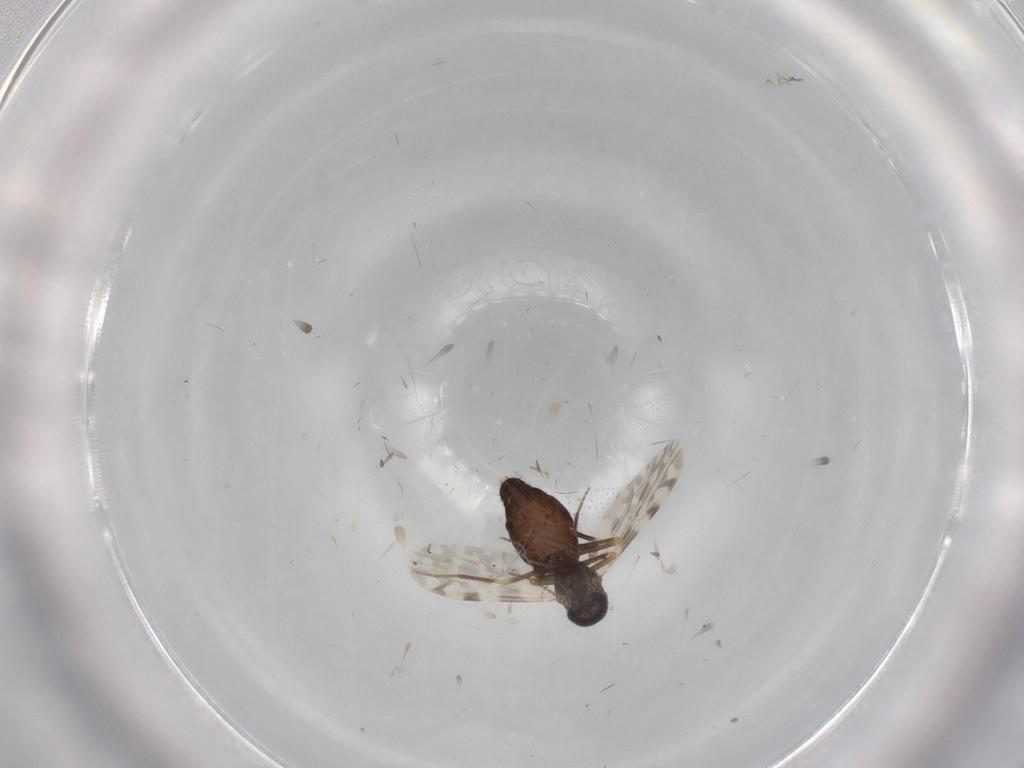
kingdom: Animalia
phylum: Arthropoda
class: Insecta
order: Diptera
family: Ceratopogonidae
